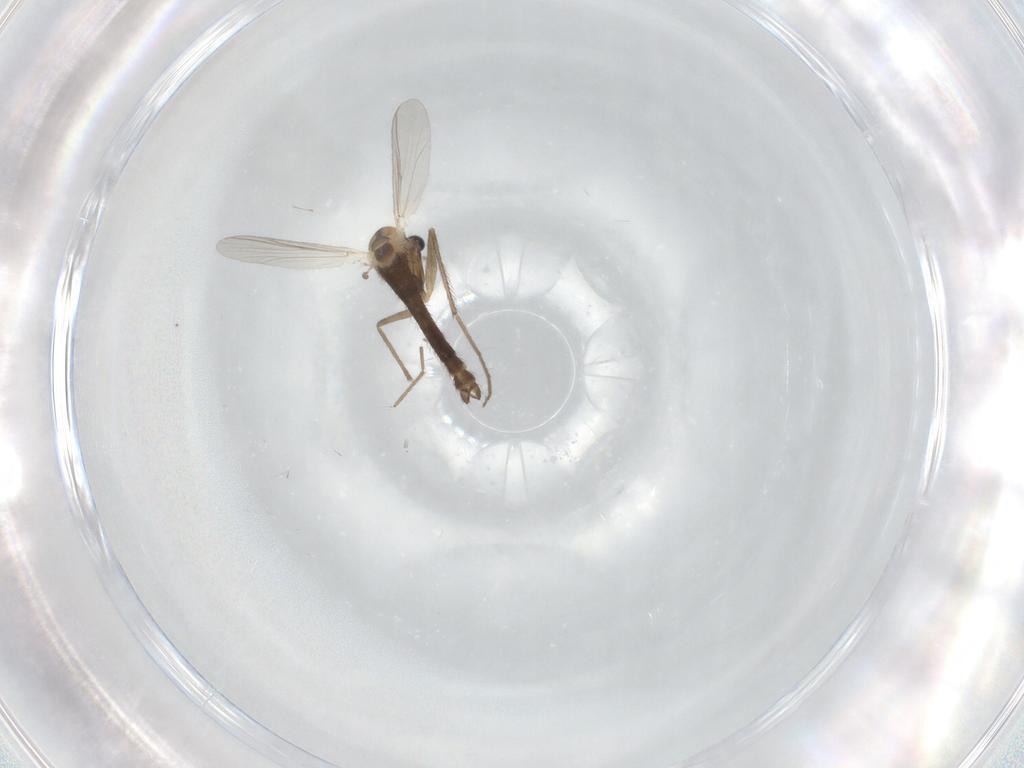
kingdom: Animalia
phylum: Arthropoda
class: Insecta
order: Diptera
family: Chironomidae
